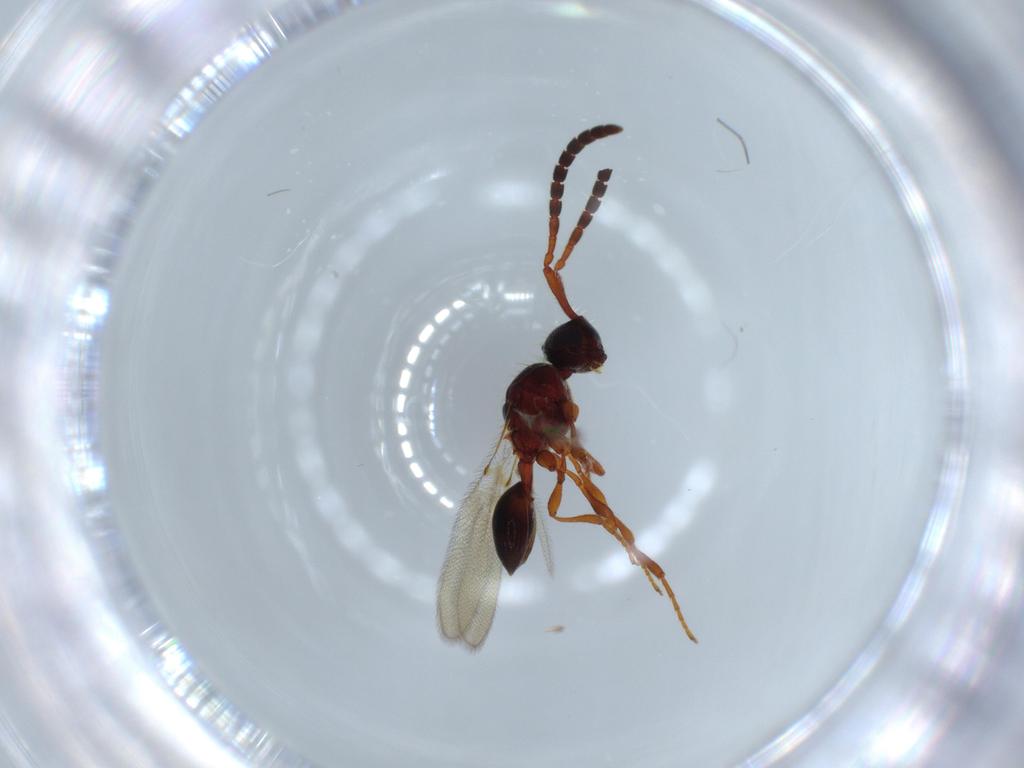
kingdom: Animalia
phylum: Arthropoda
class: Insecta
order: Hymenoptera
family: Diapriidae
